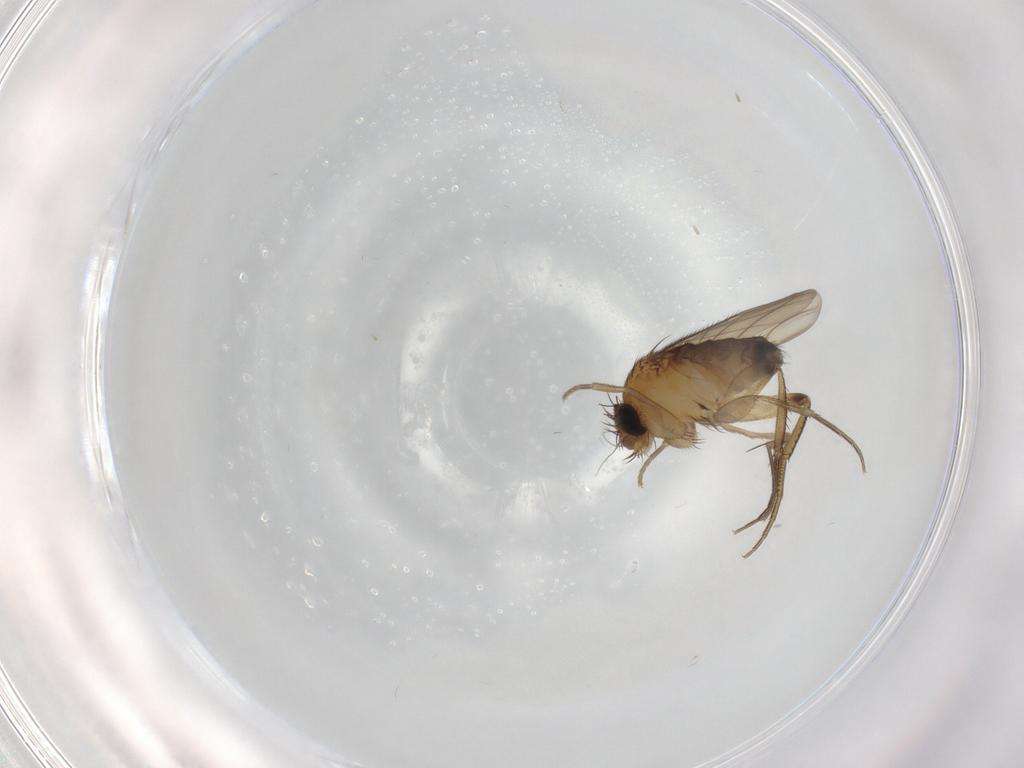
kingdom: Animalia
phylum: Arthropoda
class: Insecta
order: Diptera
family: Phoridae
